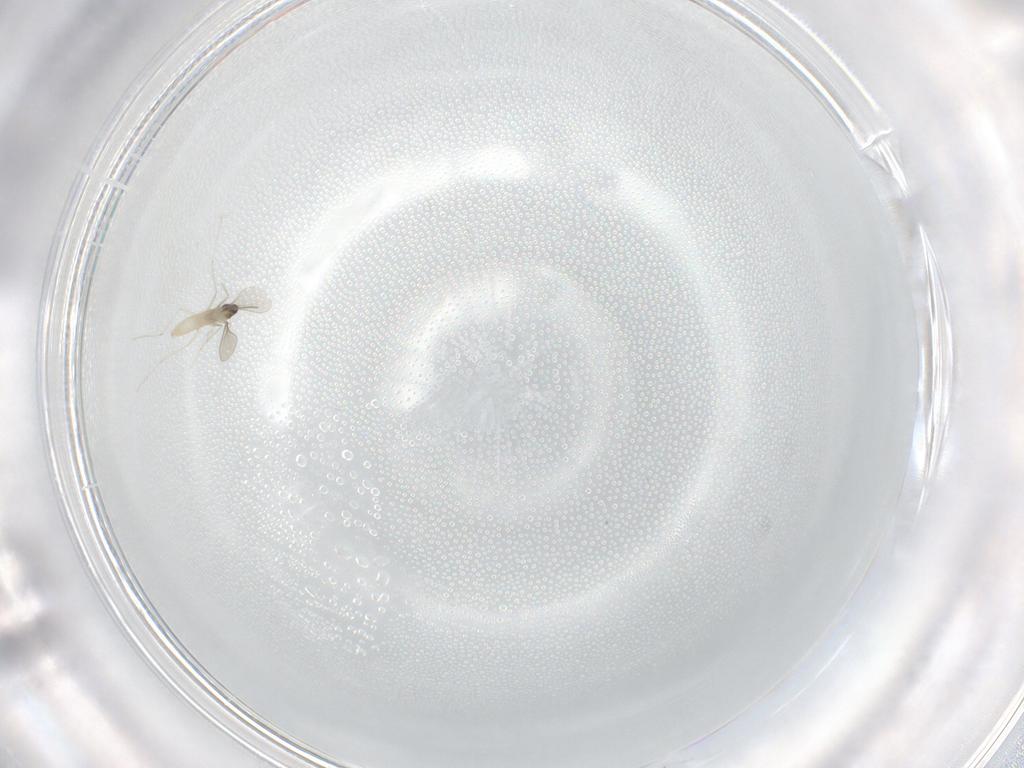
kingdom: Animalia
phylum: Arthropoda
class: Insecta
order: Diptera
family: Cecidomyiidae
